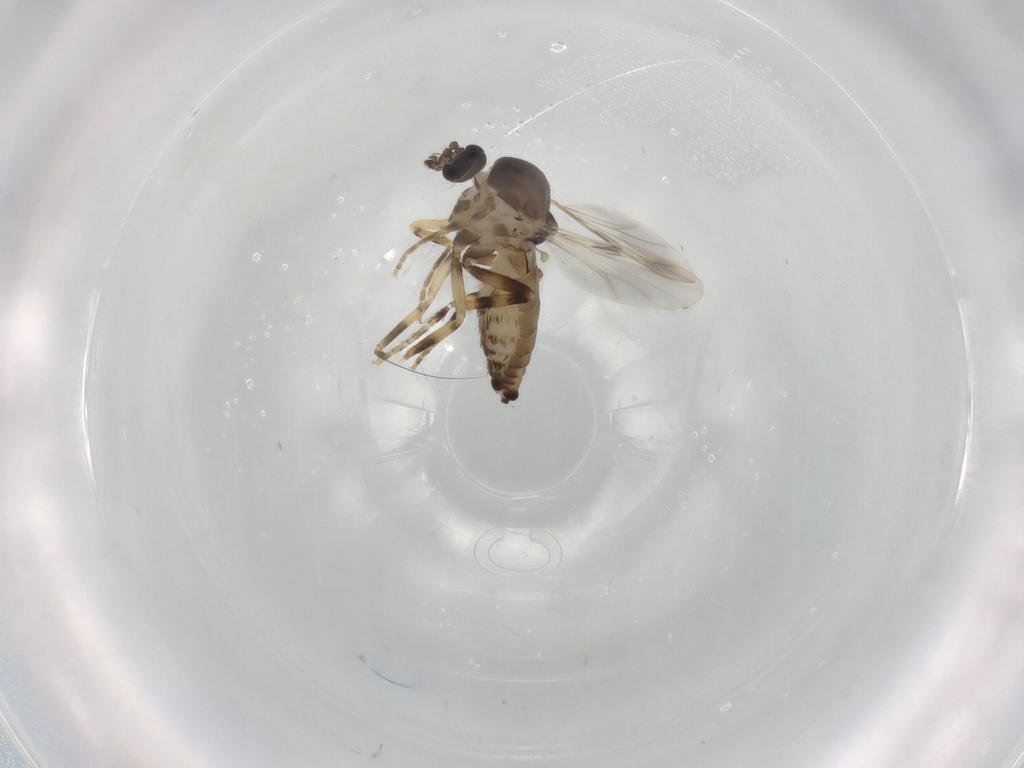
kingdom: Animalia
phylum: Arthropoda
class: Insecta
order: Diptera
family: Ceratopogonidae
